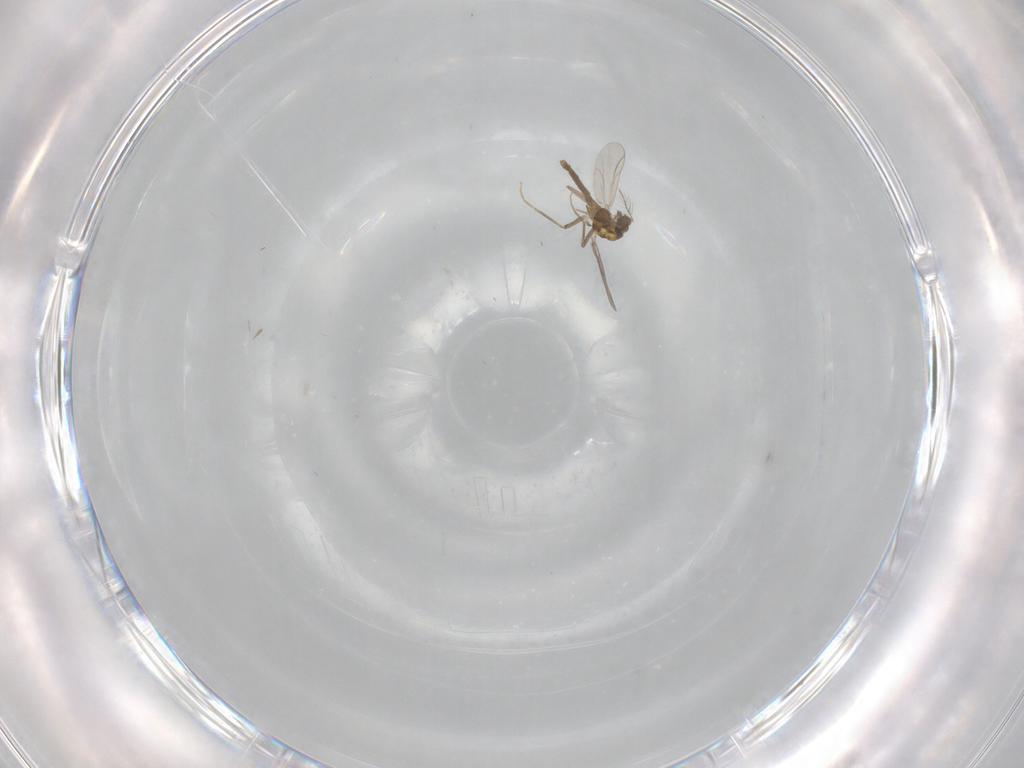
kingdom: Animalia
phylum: Arthropoda
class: Insecta
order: Diptera
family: Chironomidae
